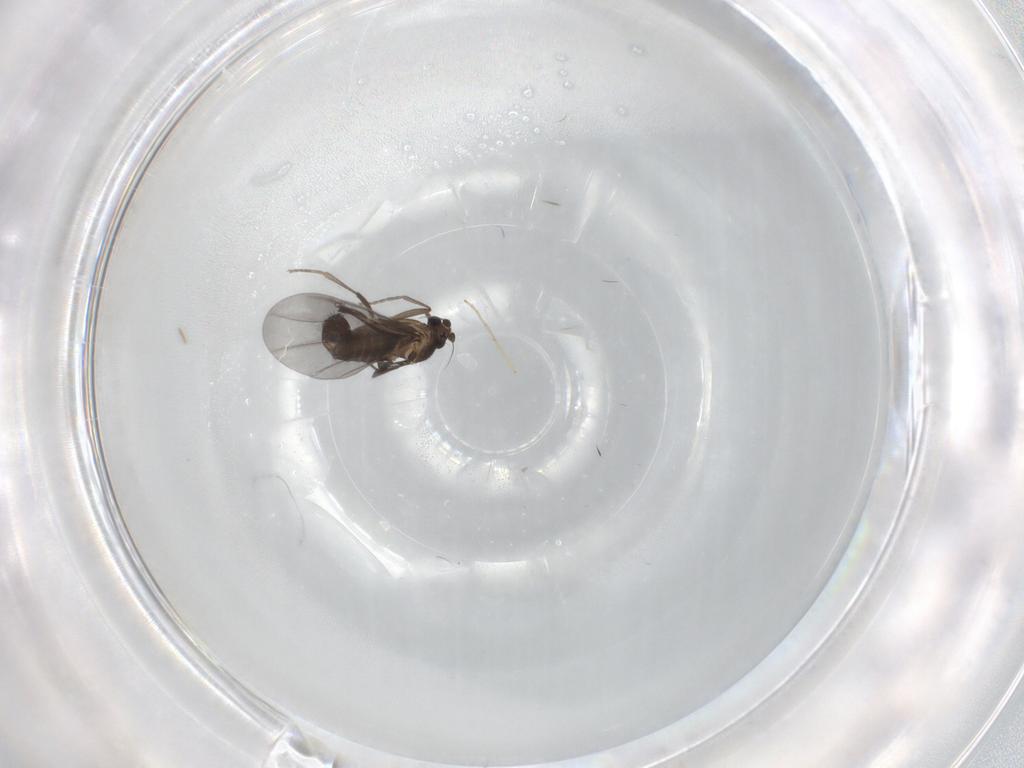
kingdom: Animalia
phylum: Arthropoda
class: Insecta
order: Diptera
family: Phoridae
